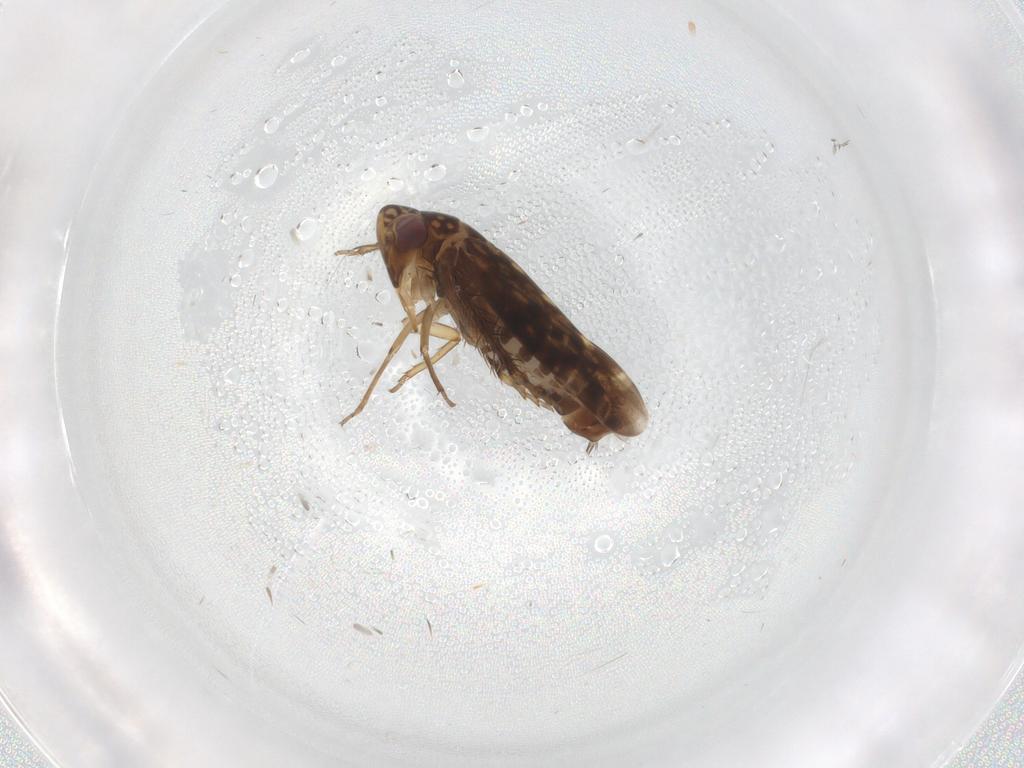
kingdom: Animalia
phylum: Arthropoda
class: Insecta
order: Hemiptera
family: Cicadellidae
